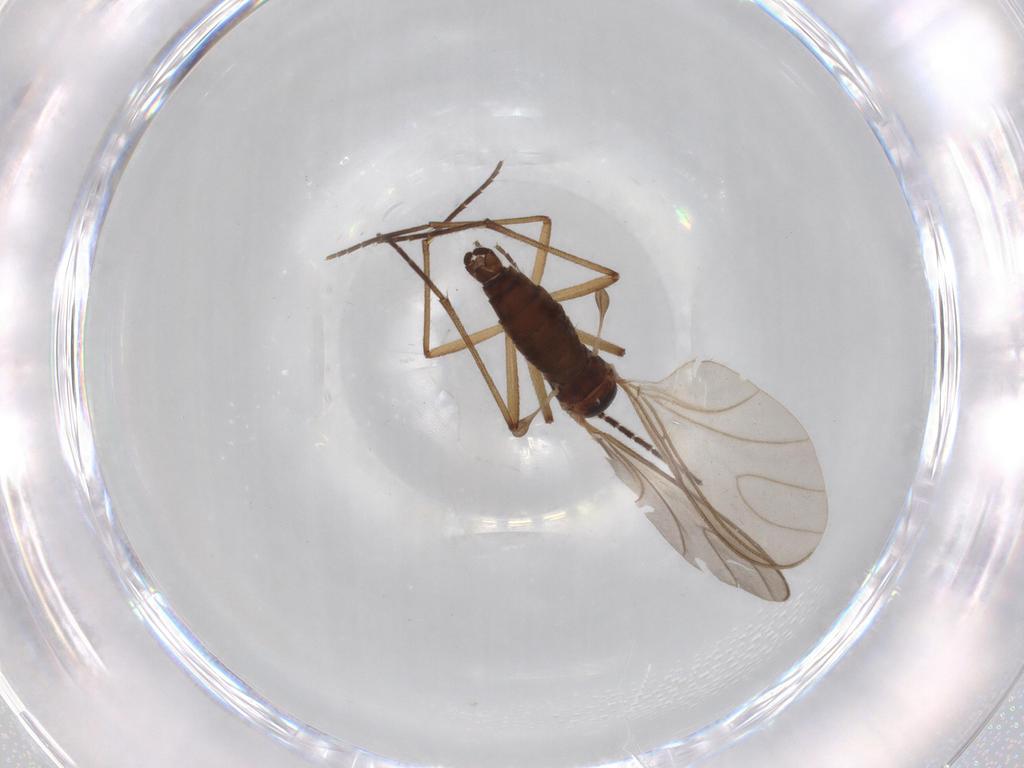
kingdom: Animalia
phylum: Arthropoda
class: Insecta
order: Diptera
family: Sciaridae
